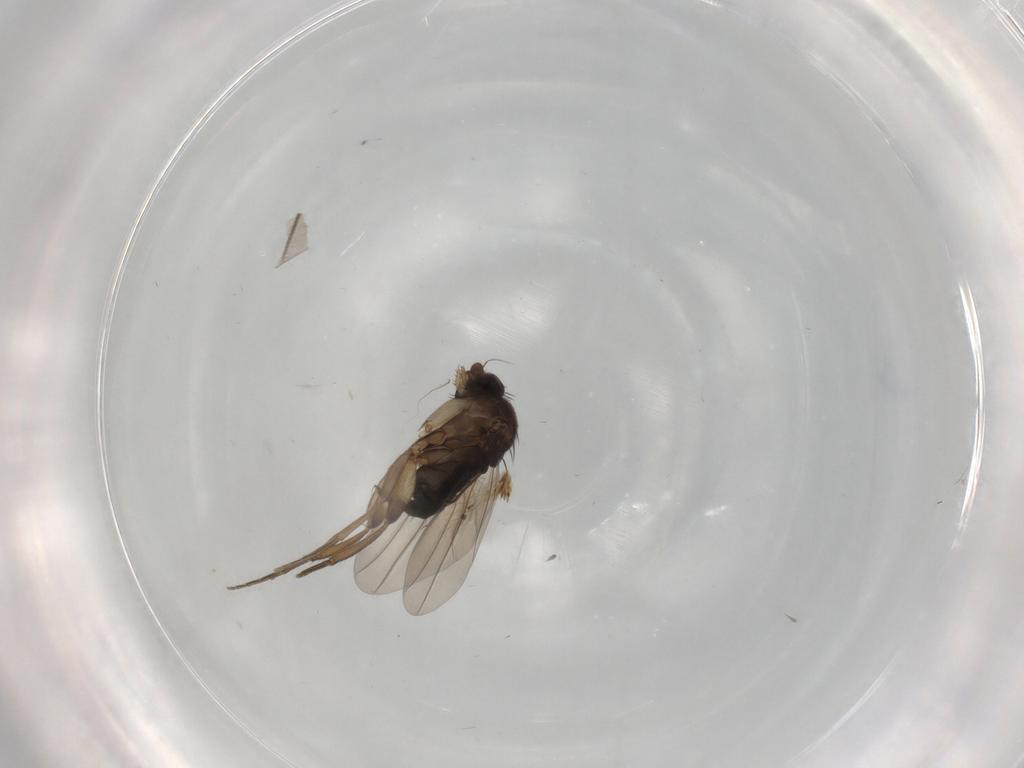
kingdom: Animalia
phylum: Arthropoda
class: Insecta
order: Diptera
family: Phoridae
